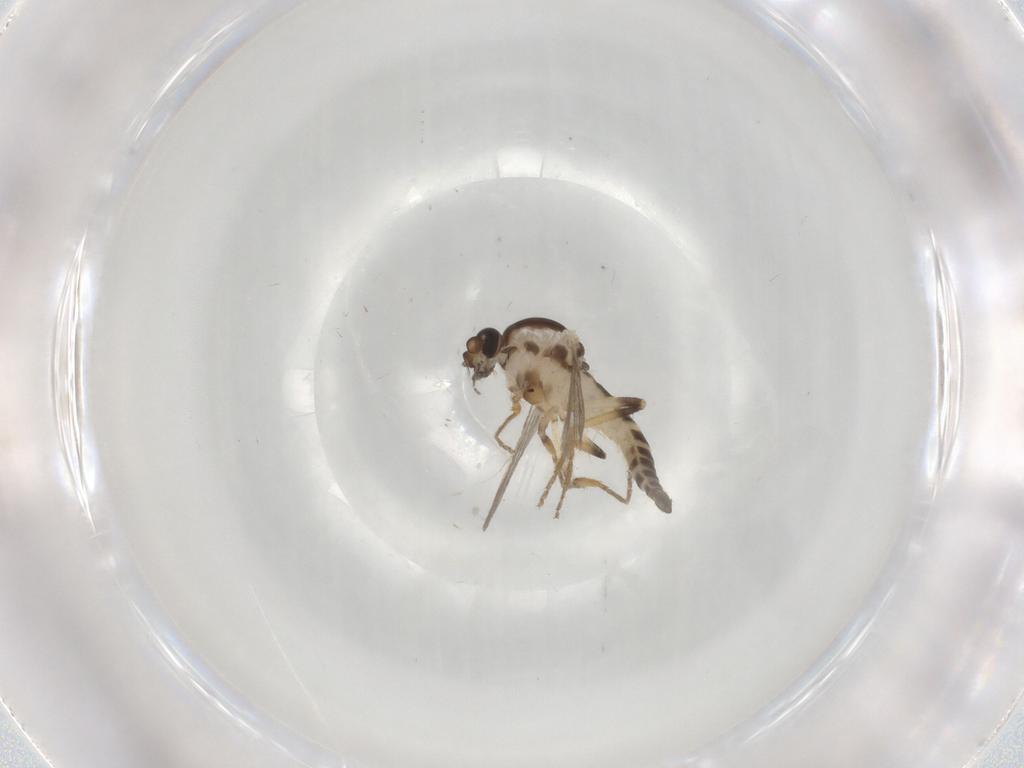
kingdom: Animalia
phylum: Arthropoda
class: Insecta
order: Diptera
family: Ceratopogonidae
